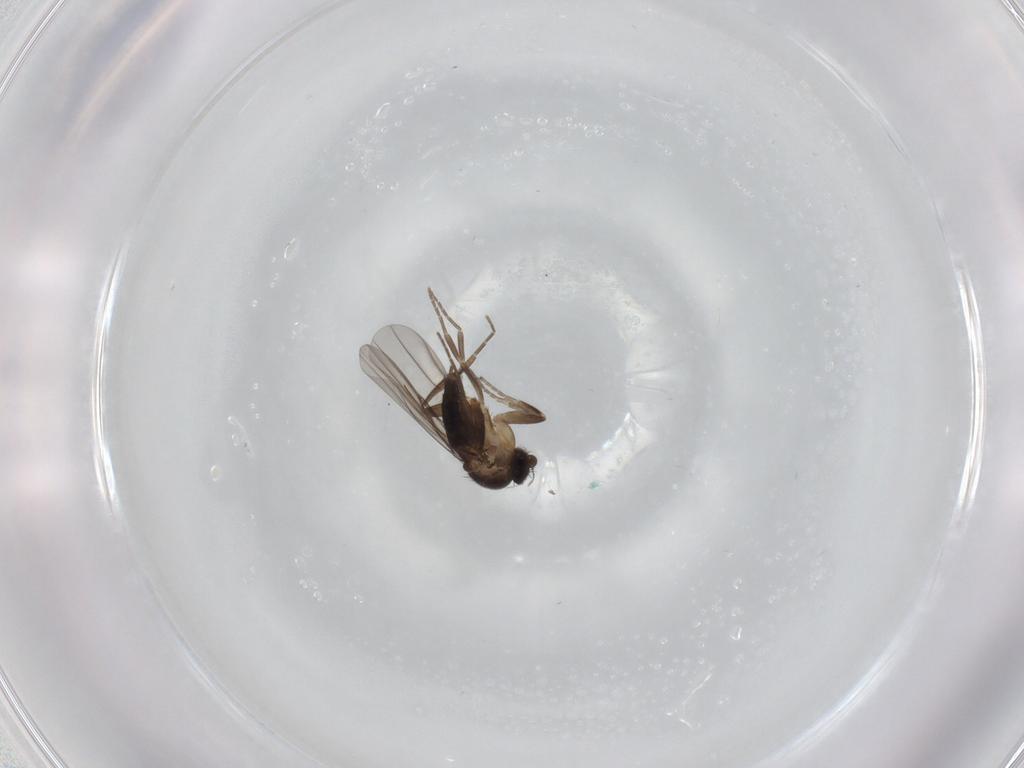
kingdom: Animalia
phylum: Arthropoda
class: Insecta
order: Diptera
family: Phoridae
